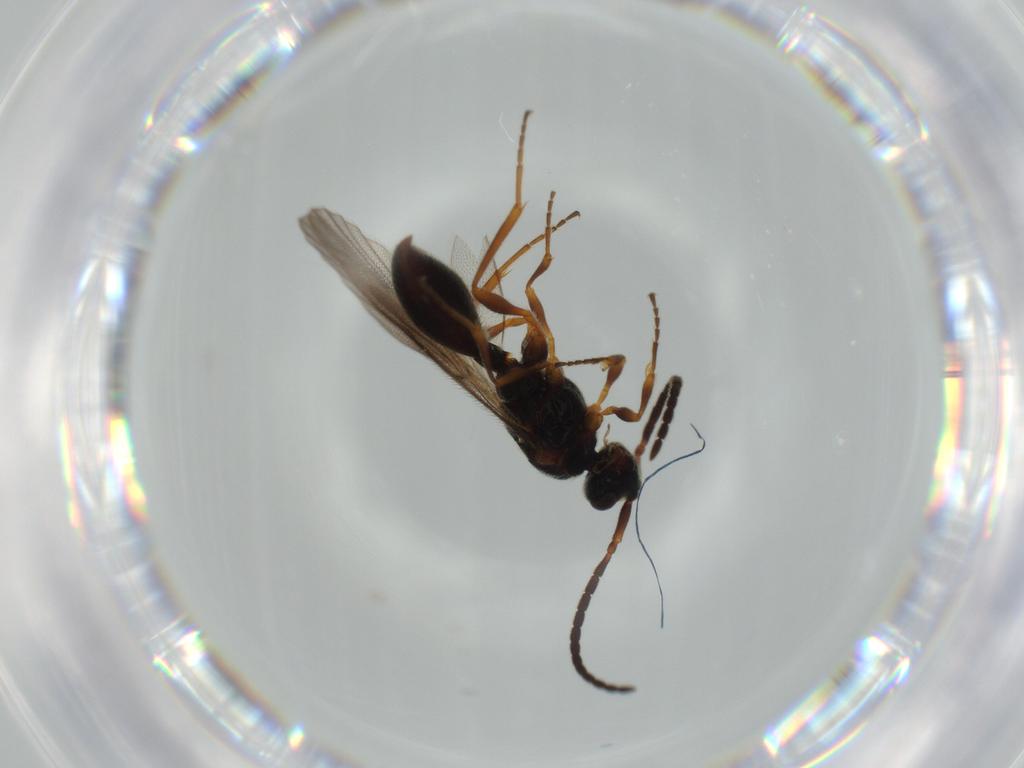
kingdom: Animalia
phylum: Arthropoda
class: Insecta
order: Hymenoptera
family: Diapriidae
